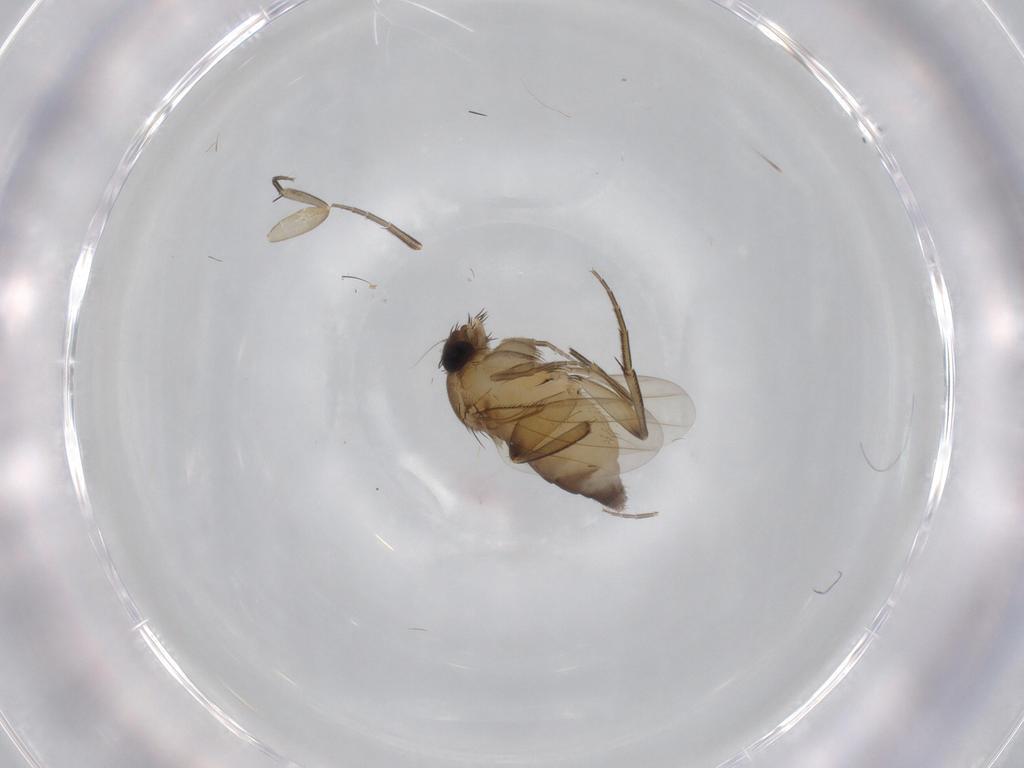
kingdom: Animalia
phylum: Arthropoda
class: Insecta
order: Diptera
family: Phoridae
